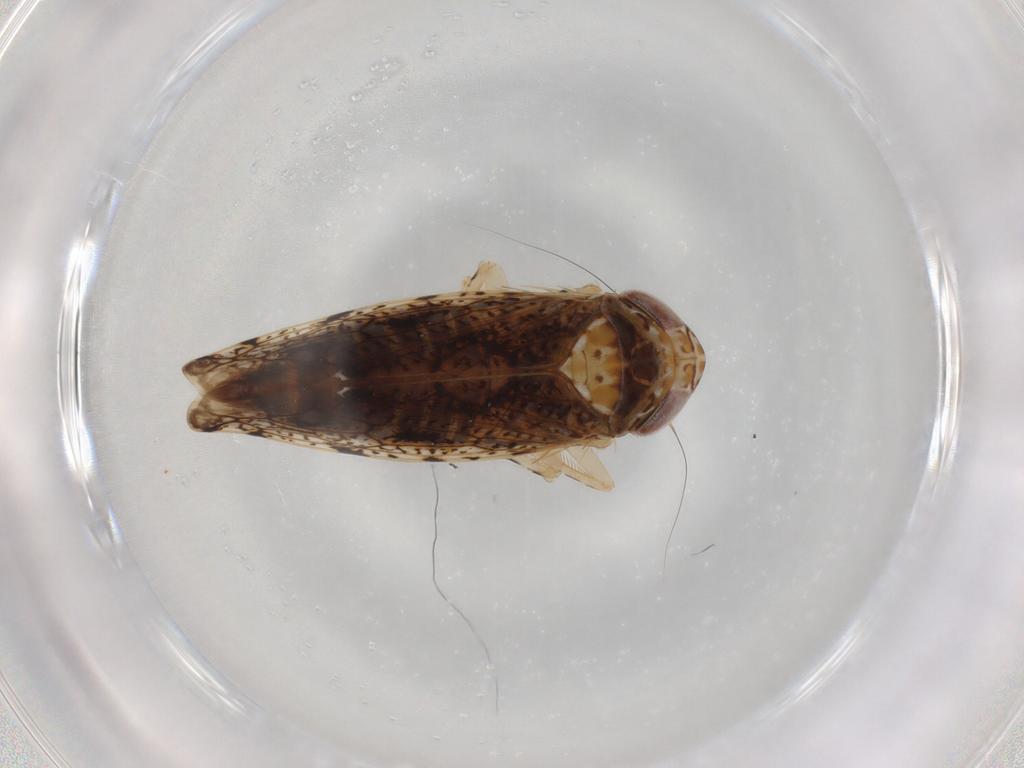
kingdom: Animalia
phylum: Arthropoda
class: Insecta
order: Hemiptera
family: Cicadellidae
